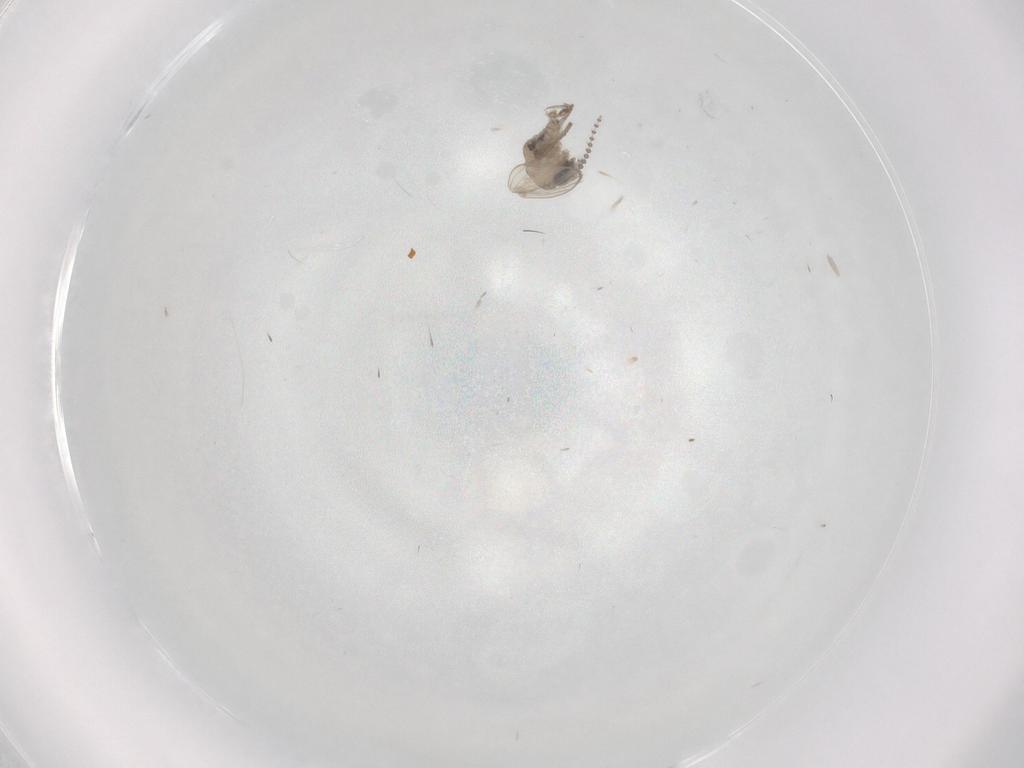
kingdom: Animalia
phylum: Arthropoda
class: Insecta
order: Diptera
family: Psychodidae
